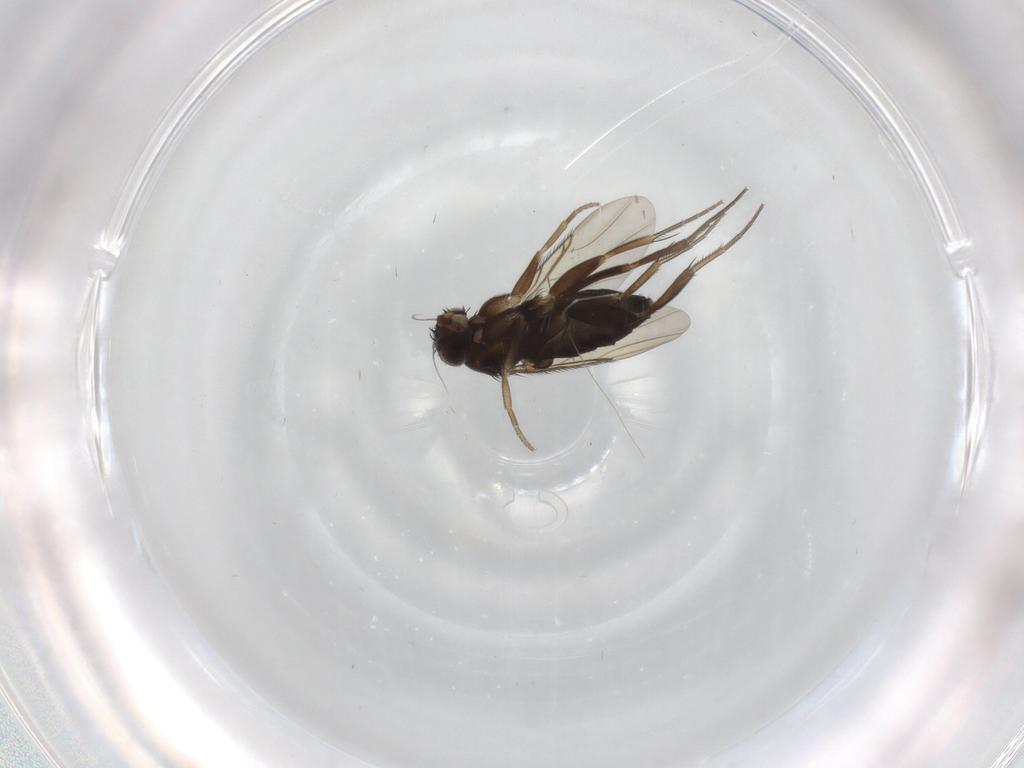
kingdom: Animalia
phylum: Arthropoda
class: Insecta
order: Diptera
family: Phoridae
